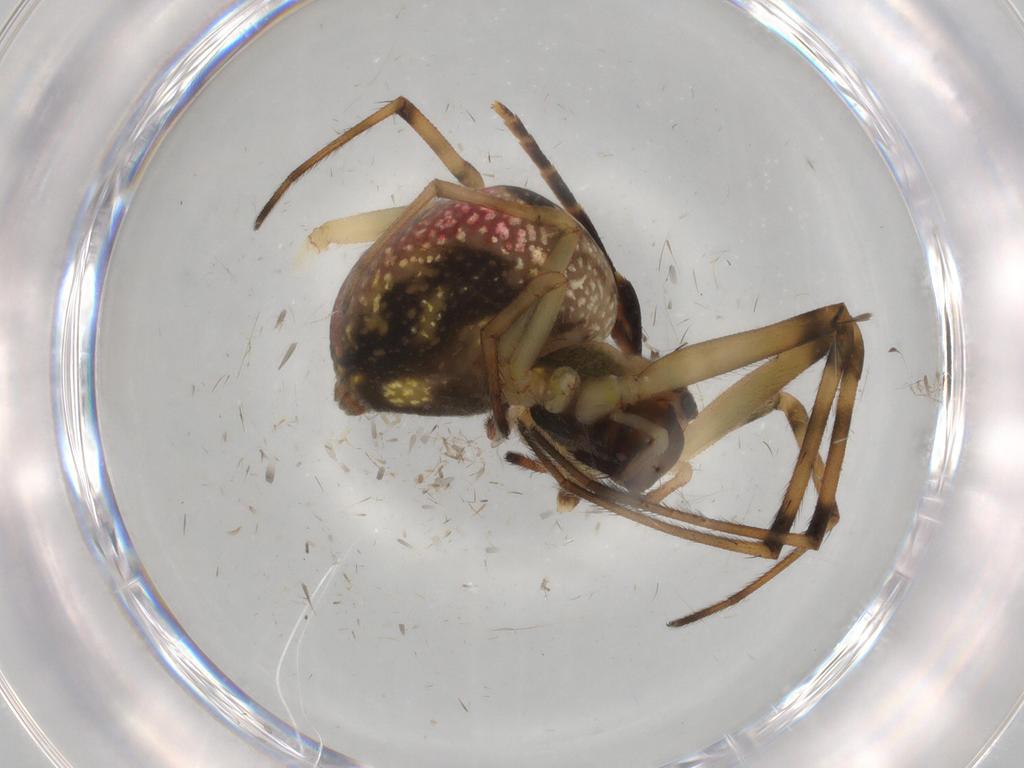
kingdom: Animalia
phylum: Arthropoda
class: Arachnida
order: Araneae
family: Tetragnathidae
